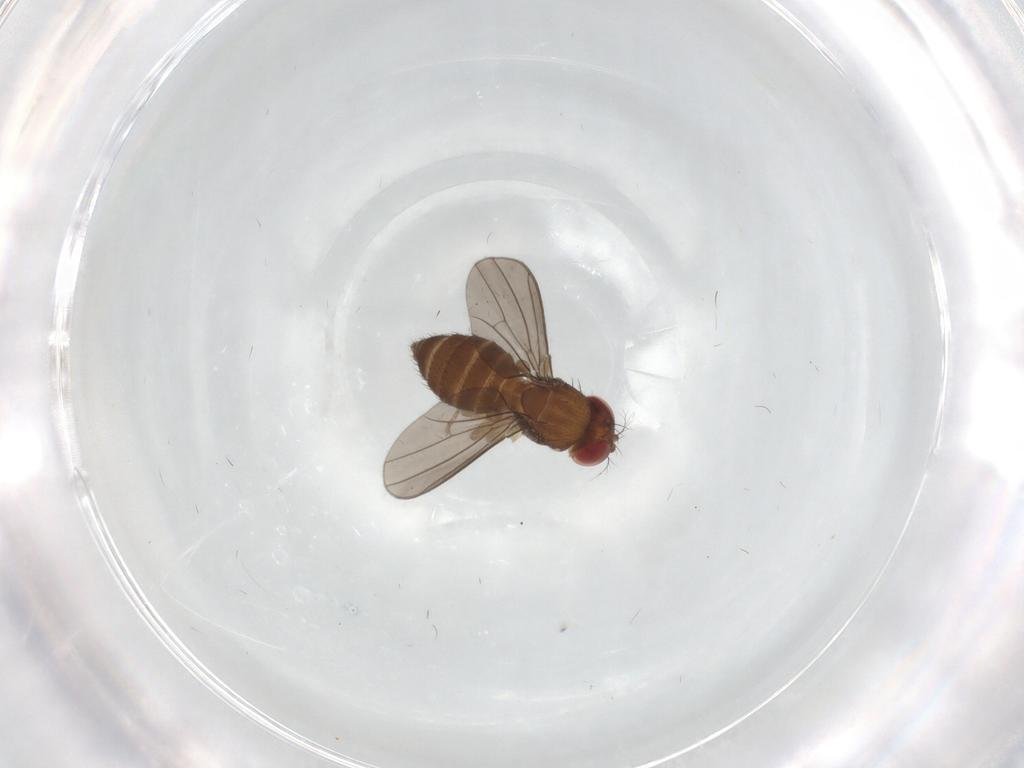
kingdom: Animalia
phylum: Arthropoda
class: Insecta
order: Diptera
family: Drosophilidae
